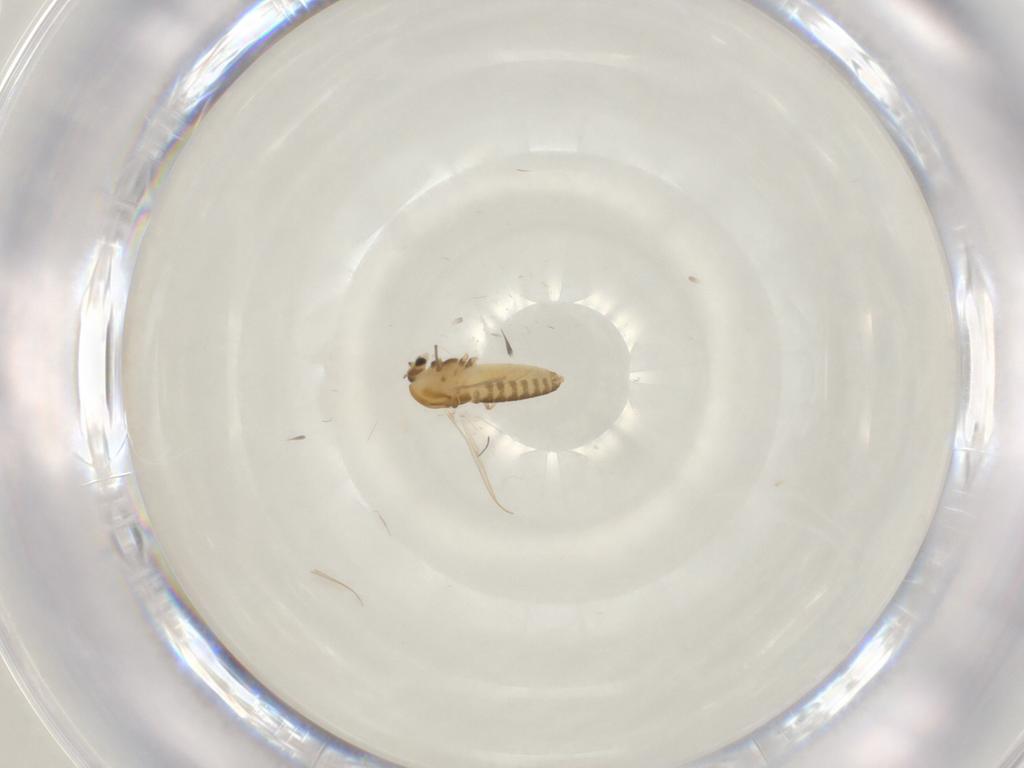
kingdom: Animalia
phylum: Arthropoda
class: Insecta
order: Diptera
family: Chironomidae
